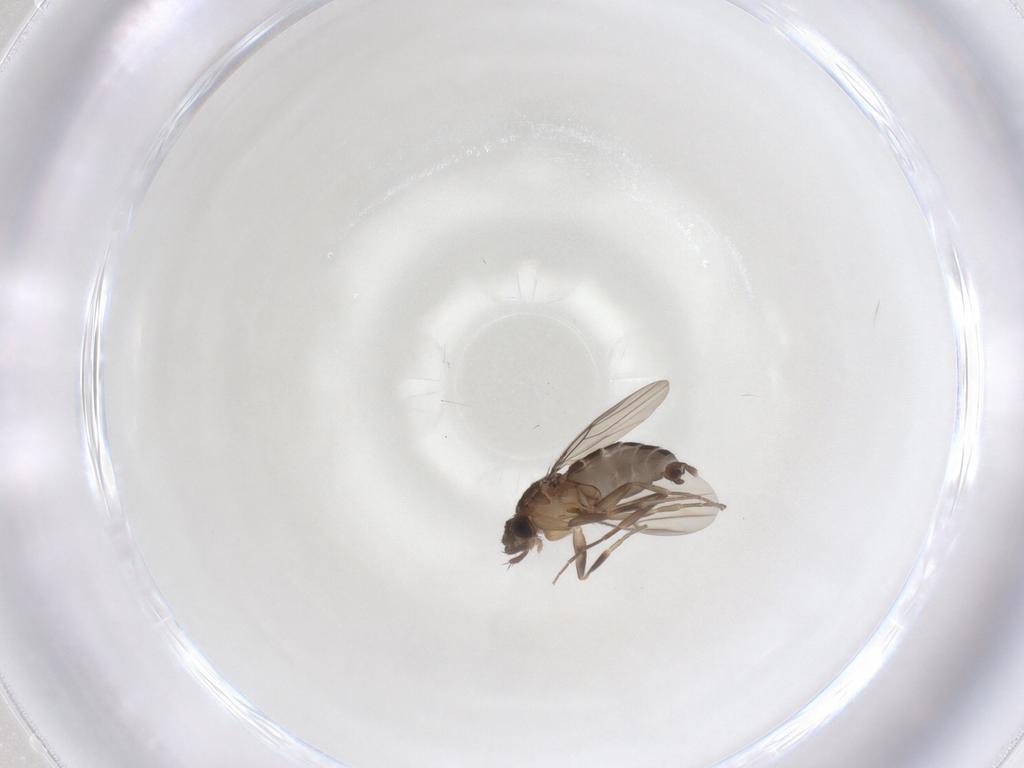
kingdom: Animalia
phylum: Arthropoda
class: Insecta
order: Diptera
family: Phoridae
